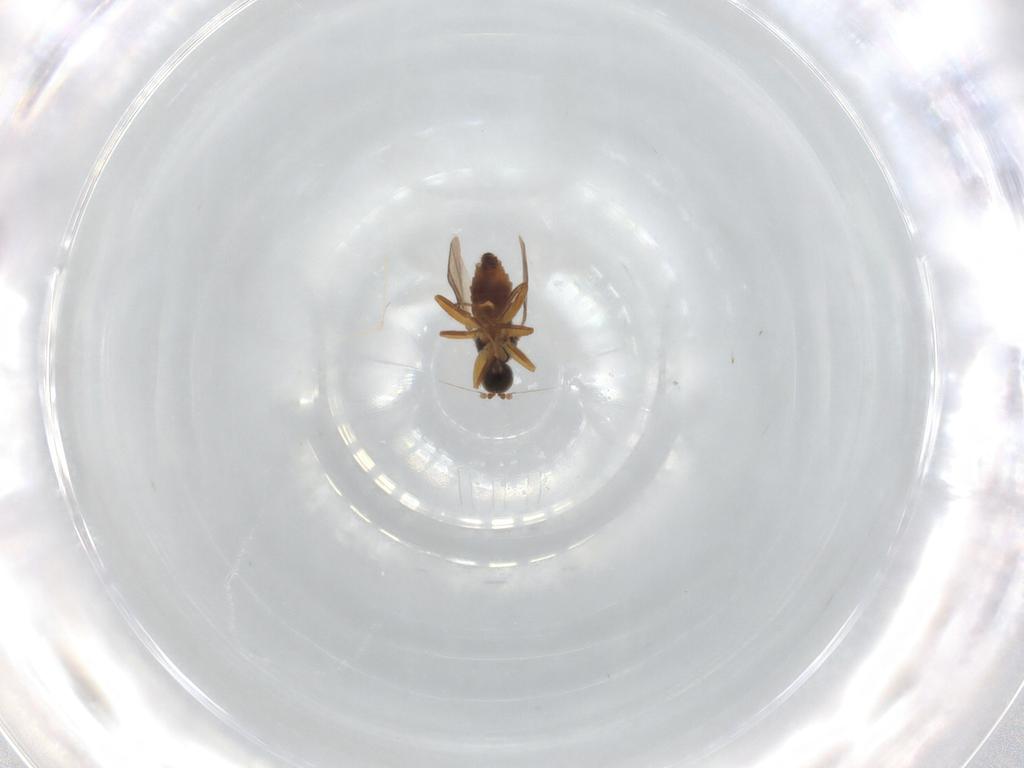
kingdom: Animalia
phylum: Arthropoda
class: Insecta
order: Diptera
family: Hybotidae
